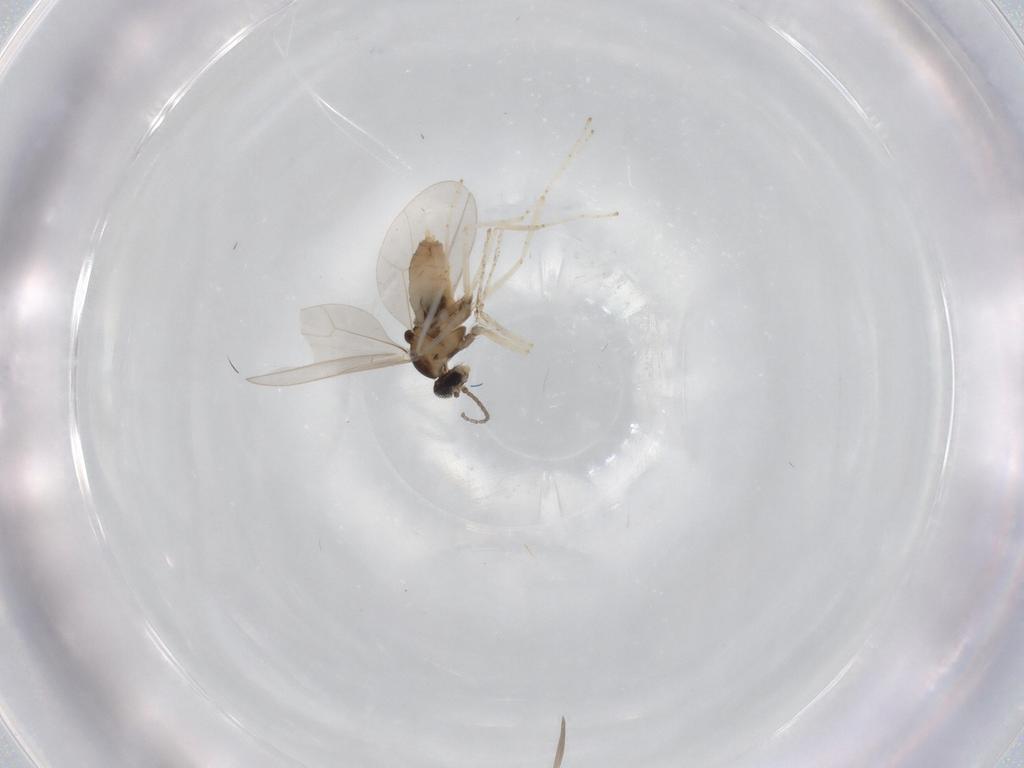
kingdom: Animalia
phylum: Arthropoda
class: Insecta
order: Diptera
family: Cecidomyiidae
